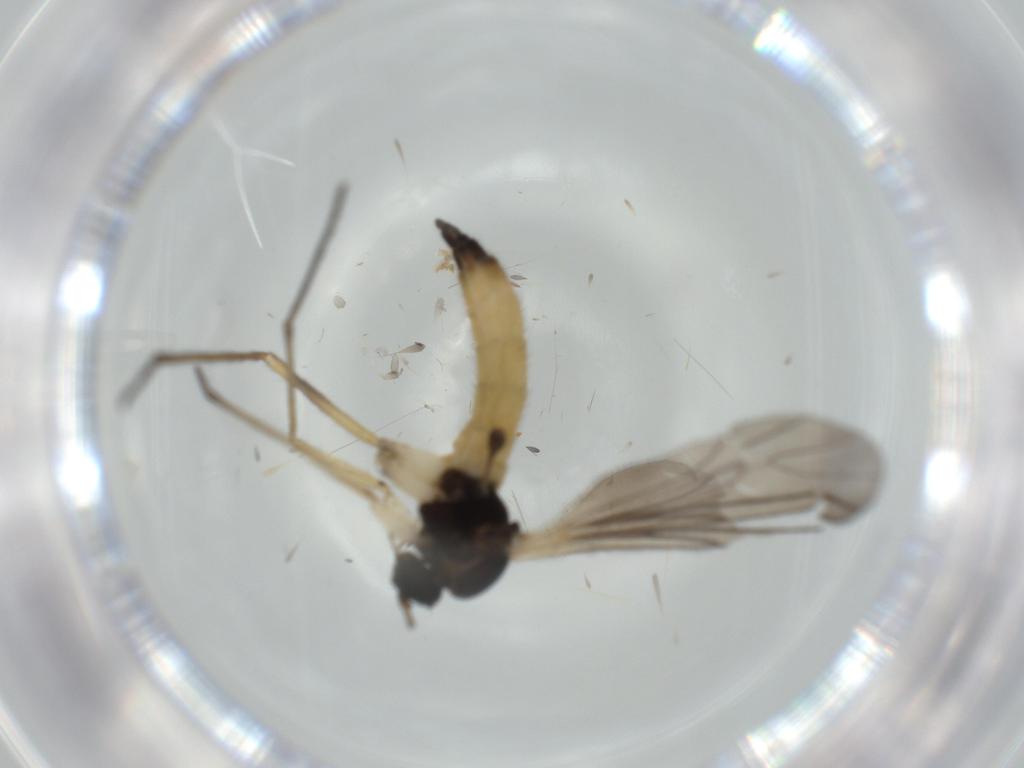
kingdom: Animalia
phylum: Arthropoda
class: Insecta
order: Diptera
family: Sciaridae
